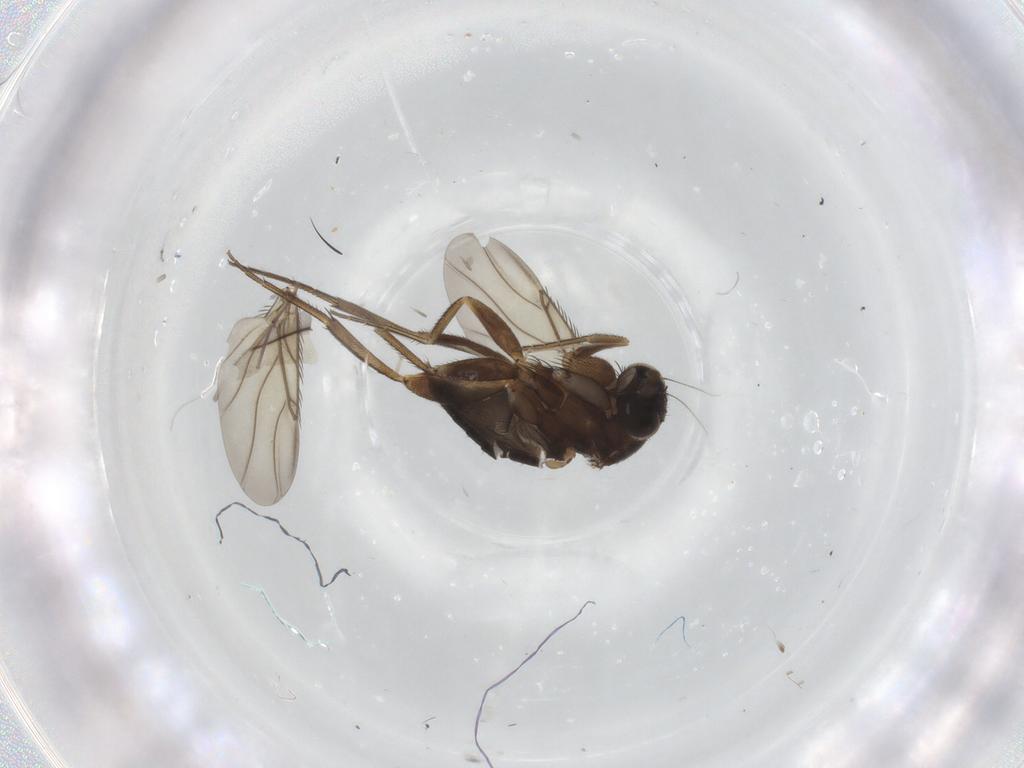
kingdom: Animalia
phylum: Arthropoda
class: Insecta
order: Diptera
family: Phoridae
